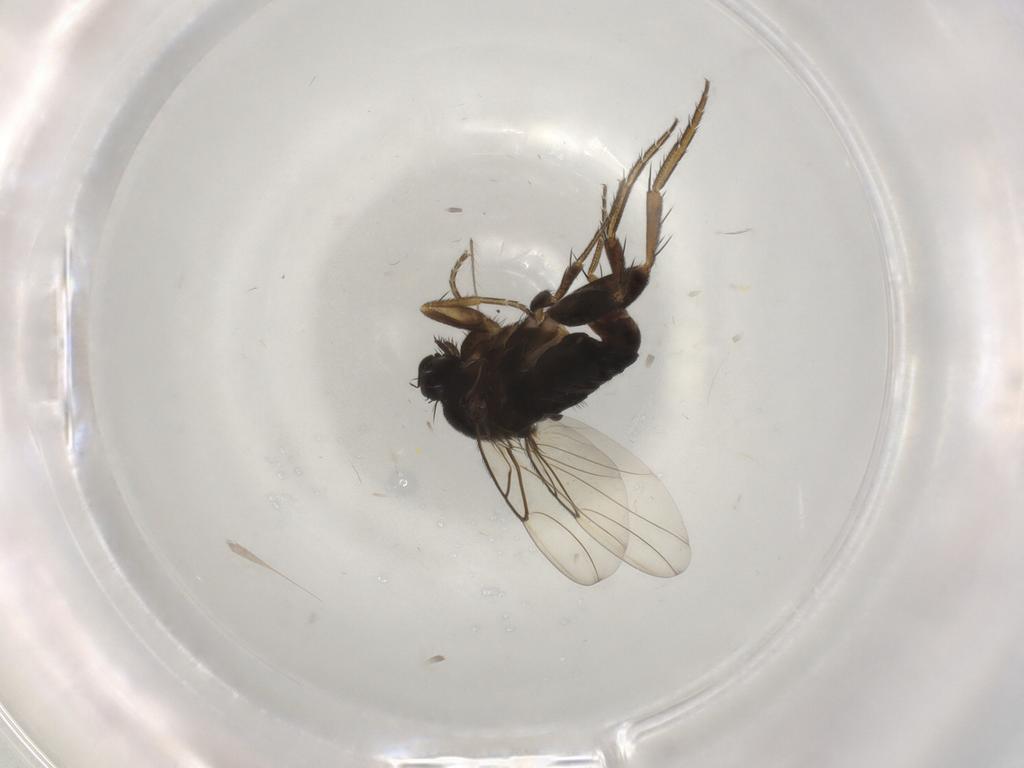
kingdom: Animalia
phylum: Arthropoda
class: Insecta
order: Diptera
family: Phoridae
